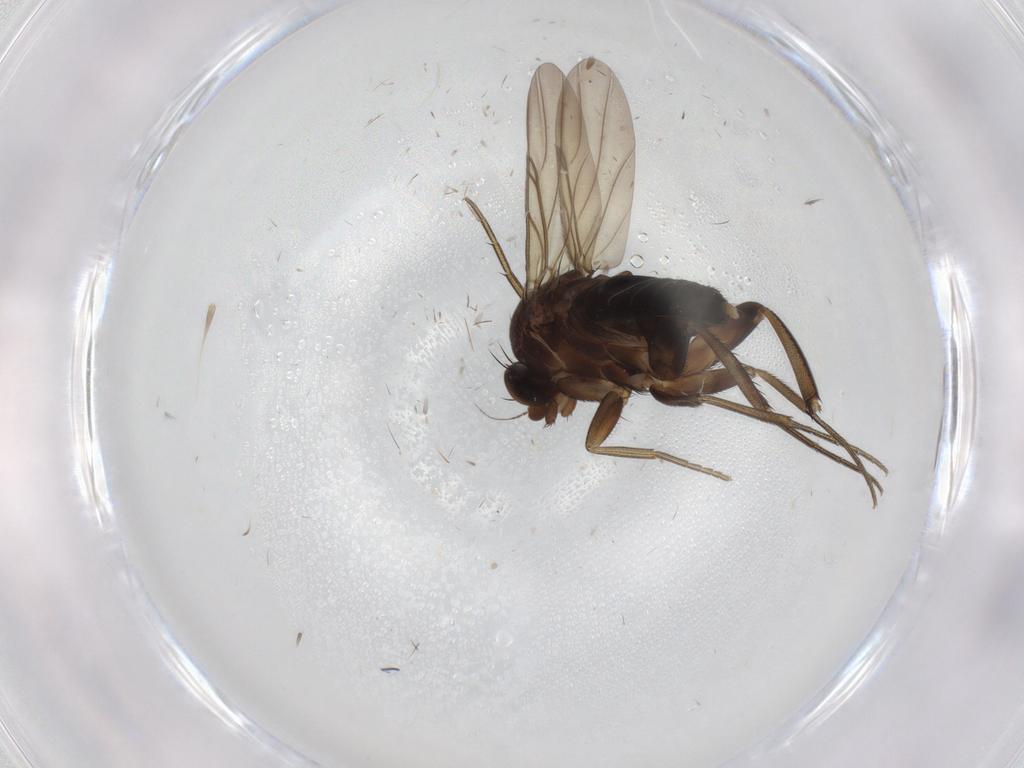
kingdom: Animalia
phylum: Arthropoda
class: Insecta
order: Diptera
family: Phoridae
